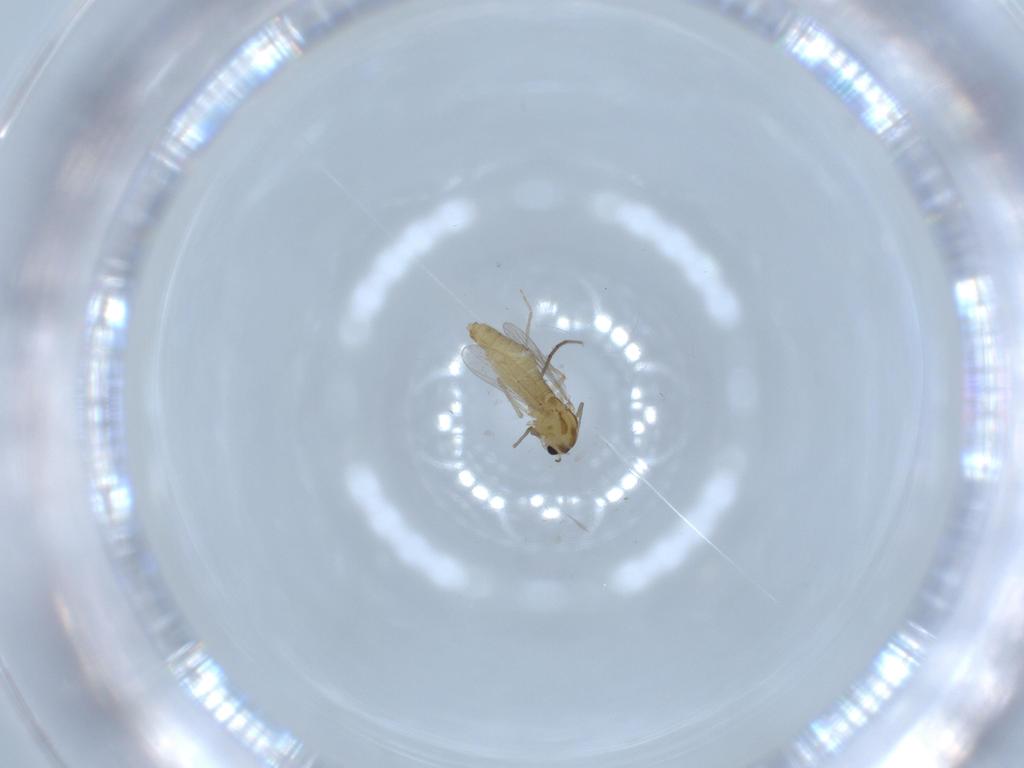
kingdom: Animalia
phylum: Arthropoda
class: Insecta
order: Diptera
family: Chironomidae
